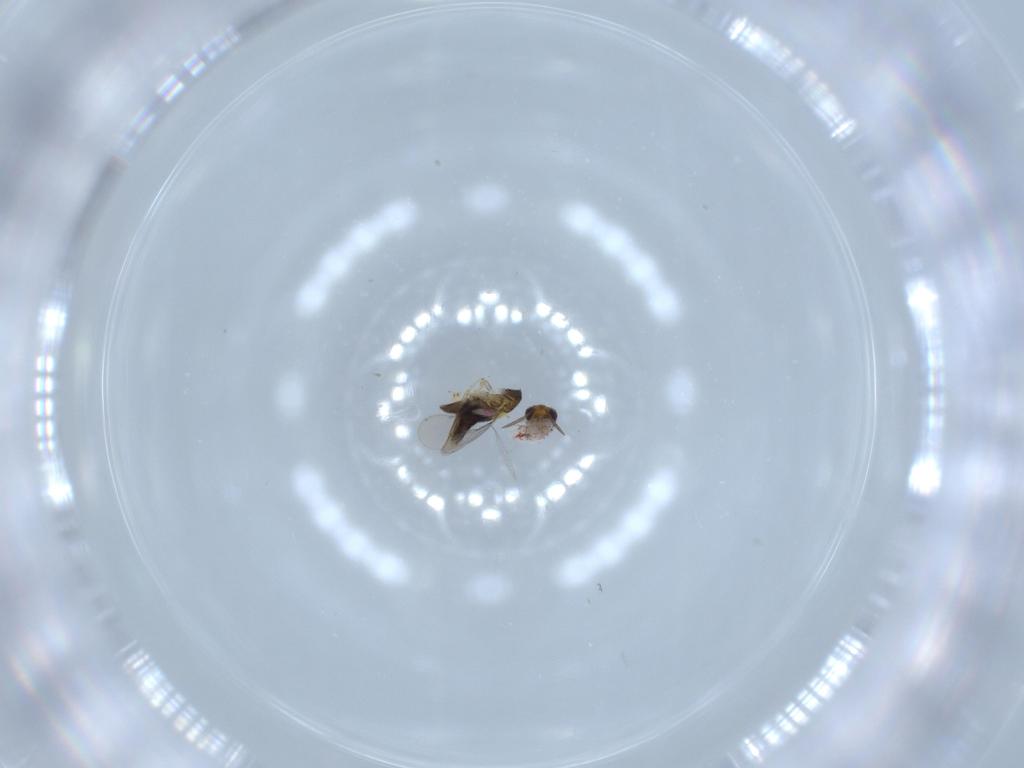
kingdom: Animalia
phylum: Arthropoda
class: Insecta
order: Hymenoptera
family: Aphelinidae
